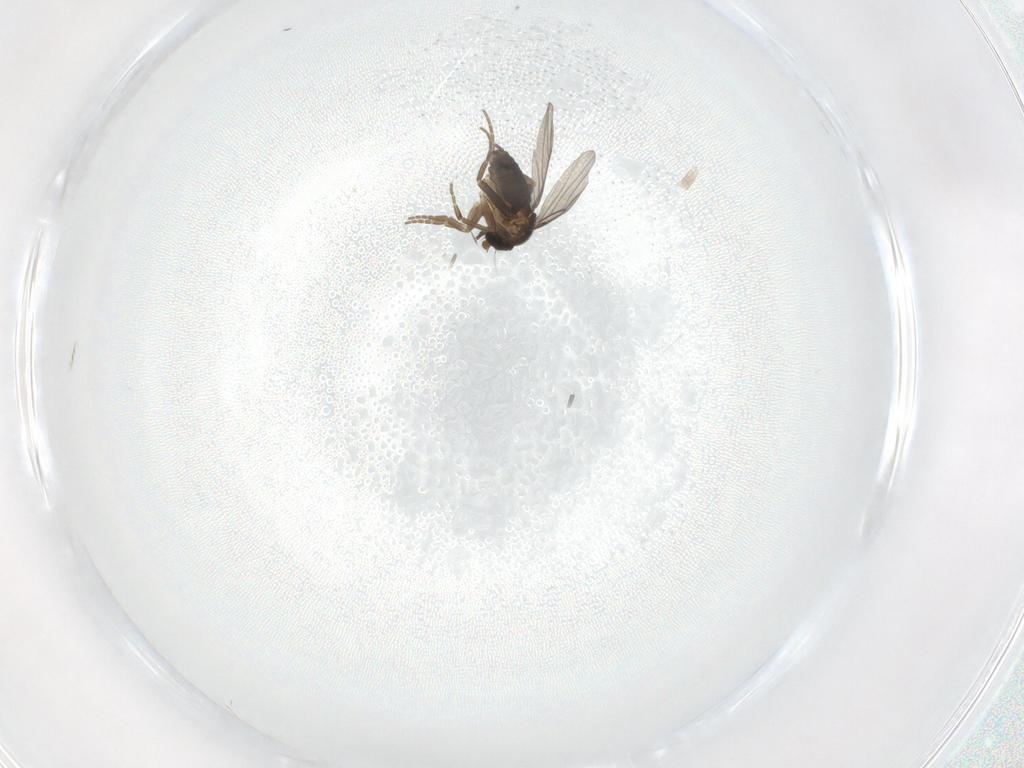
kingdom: Animalia
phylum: Arthropoda
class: Insecta
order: Diptera
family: Phoridae
